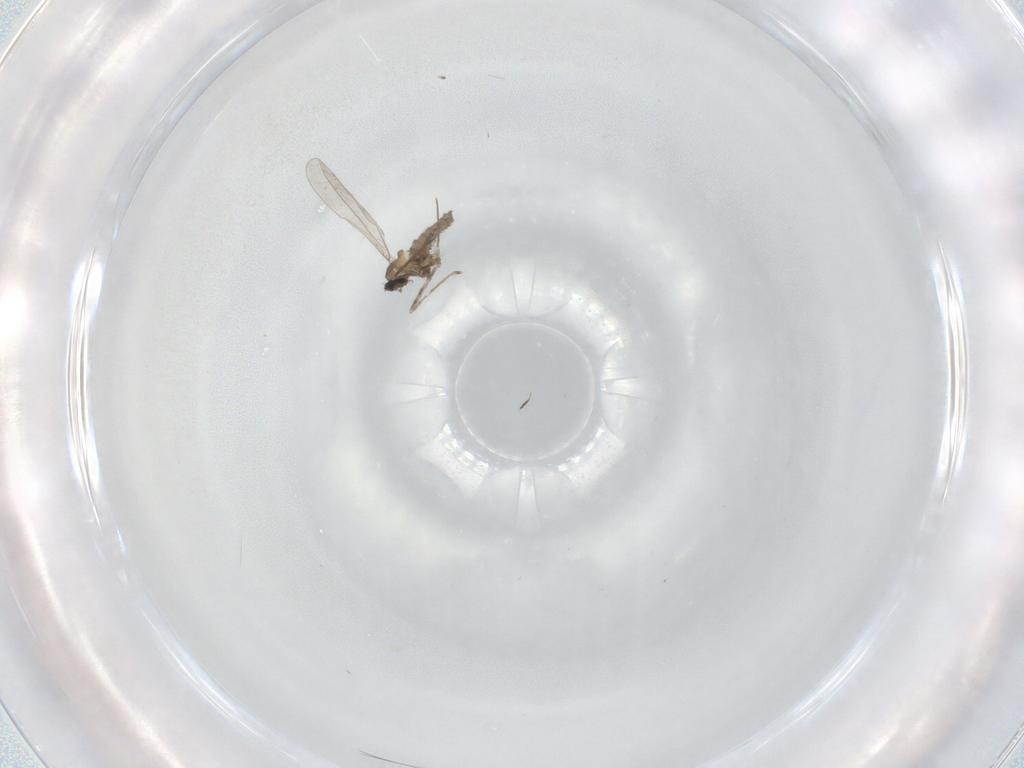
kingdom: Animalia
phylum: Arthropoda
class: Insecta
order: Diptera
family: Cecidomyiidae
